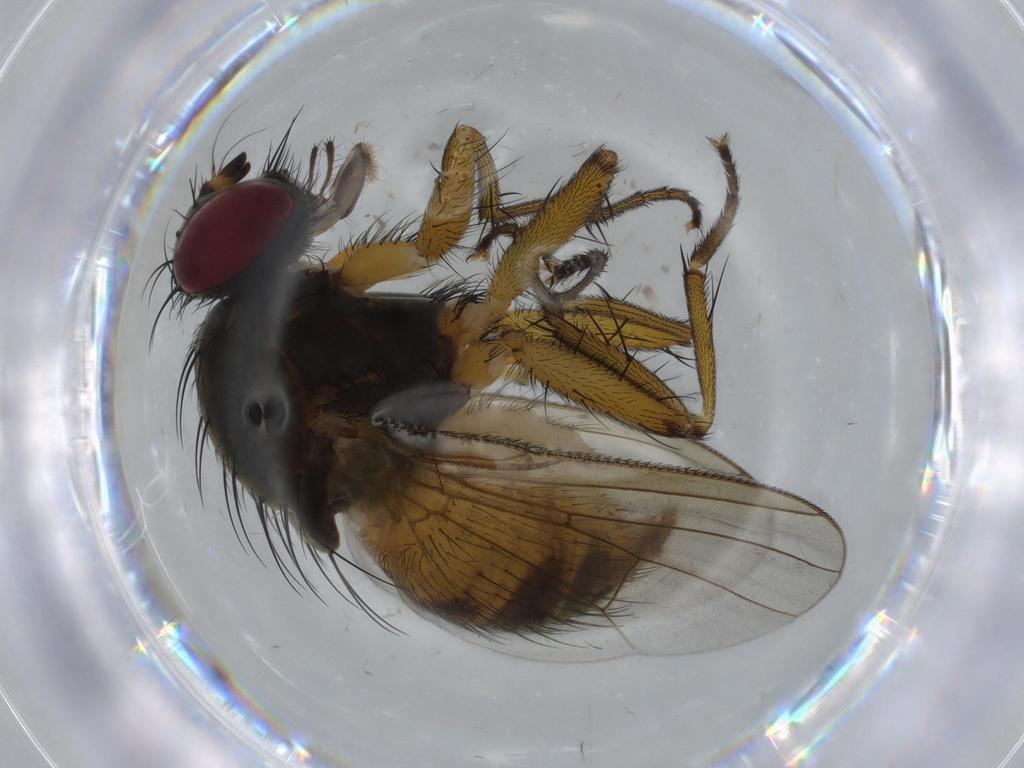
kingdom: Animalia
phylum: Arthropoda
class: Insecta
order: Diptera
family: Muscidae
